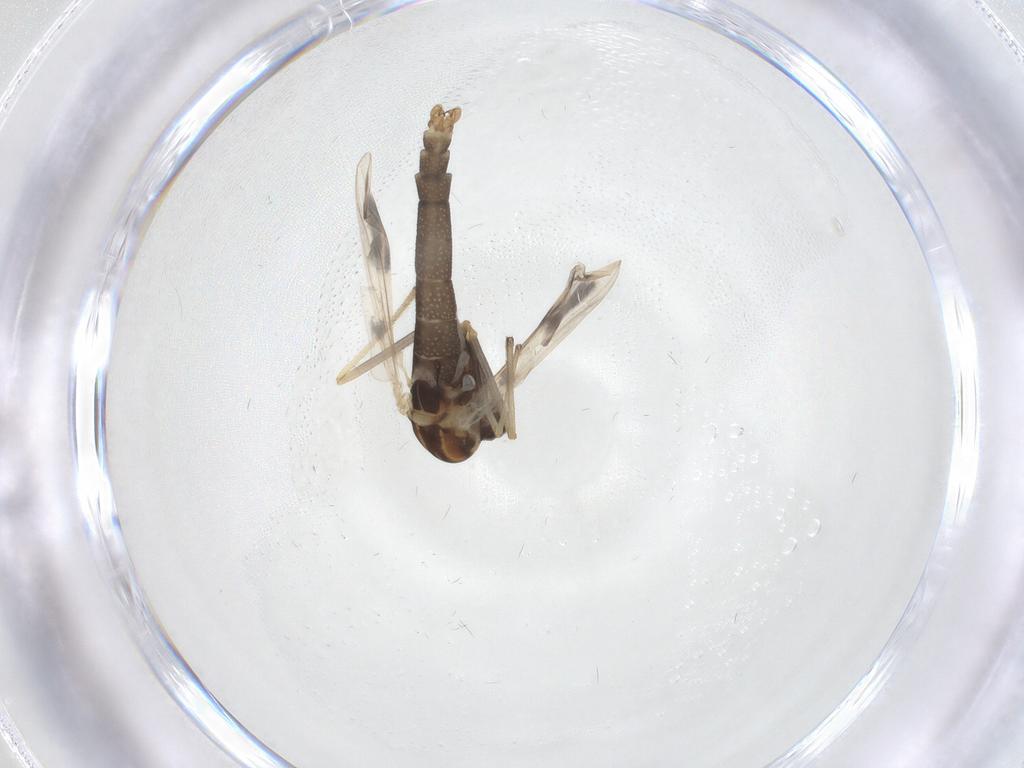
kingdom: Animalia
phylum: Arthropoda
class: Insecta
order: Diptera
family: Chironomidae
